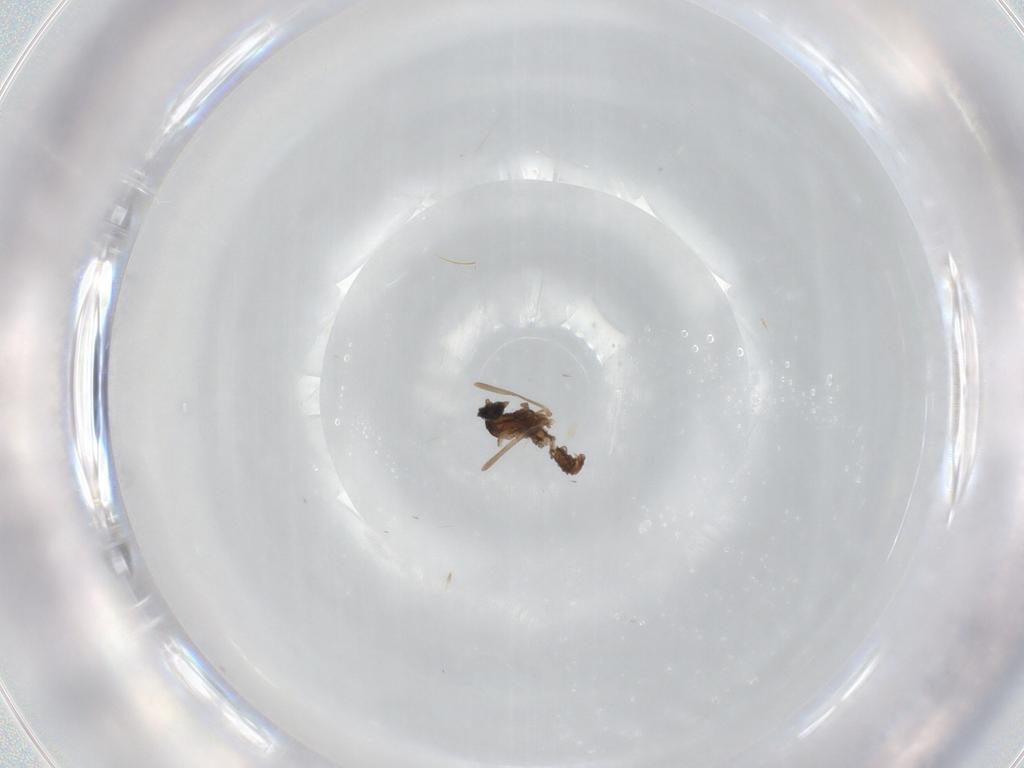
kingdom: Animalia
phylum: Arthropoda
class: Insecta
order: Diptera
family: Cecidomyiidae
